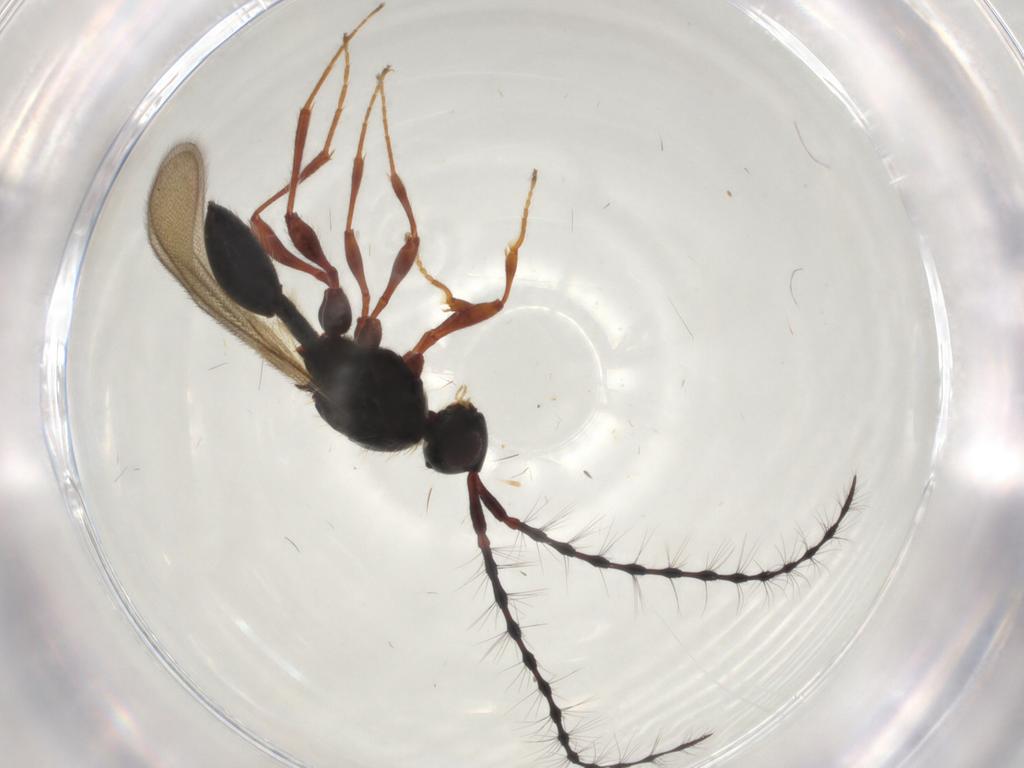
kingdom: Animalia
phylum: Arthropoda
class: Insecta
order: Hymenoptera
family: Diapriidae
